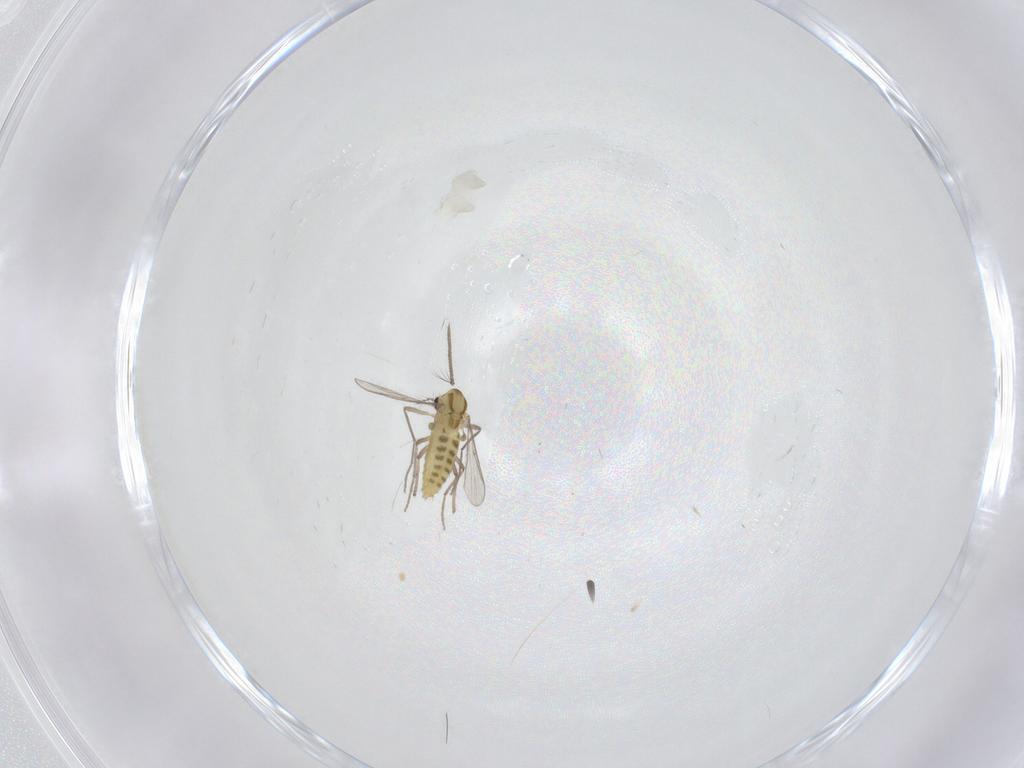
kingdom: Animalia
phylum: Arthropoda
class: Insecta
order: Diptera
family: Chironomidae
